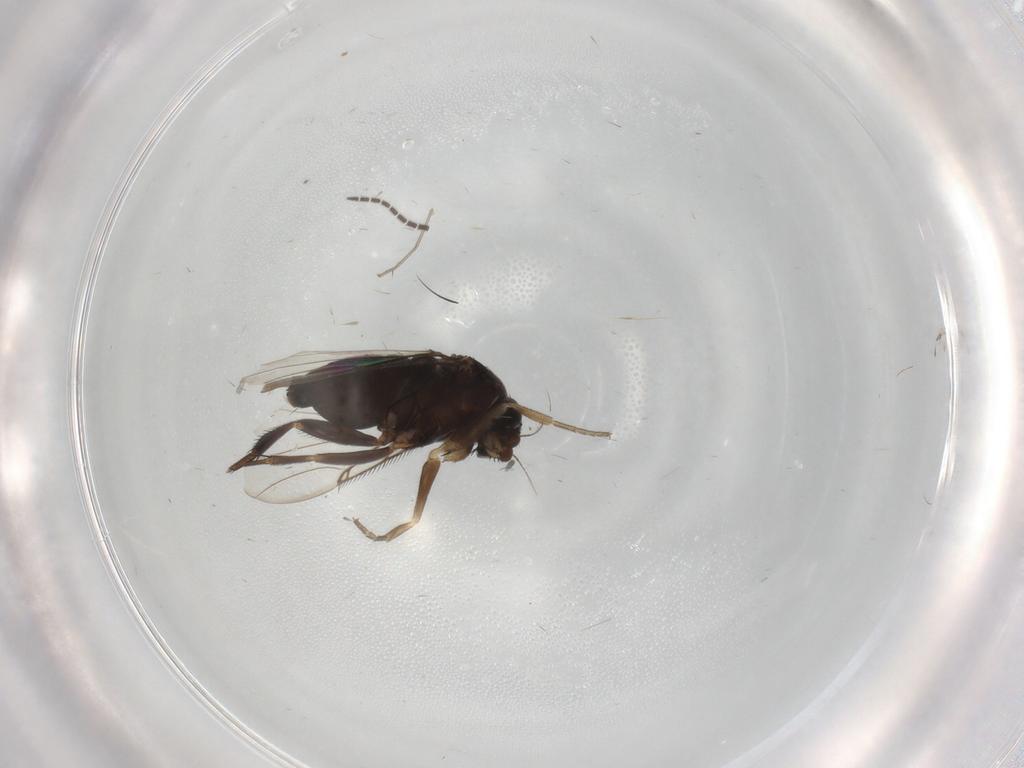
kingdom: Animalia
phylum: Arthropoda
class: Insecta
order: Diptera
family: Phoridae
